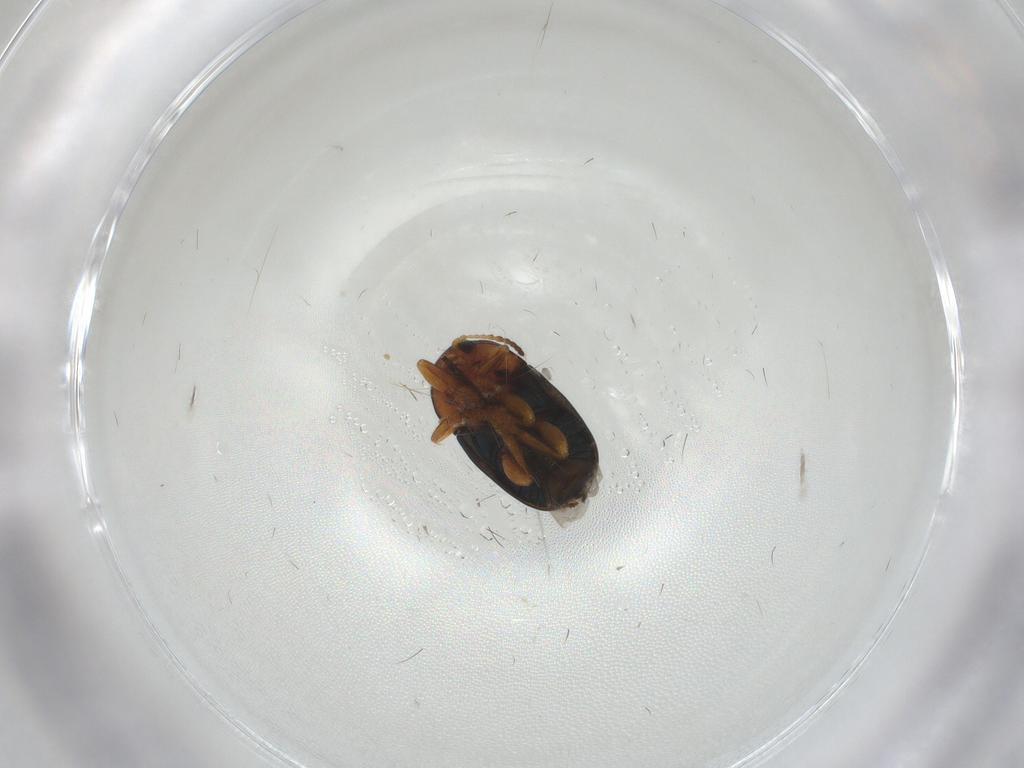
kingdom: Animalia
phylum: Arthropoda
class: Insecta
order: Coleoptera
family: Ptilodactylidae
